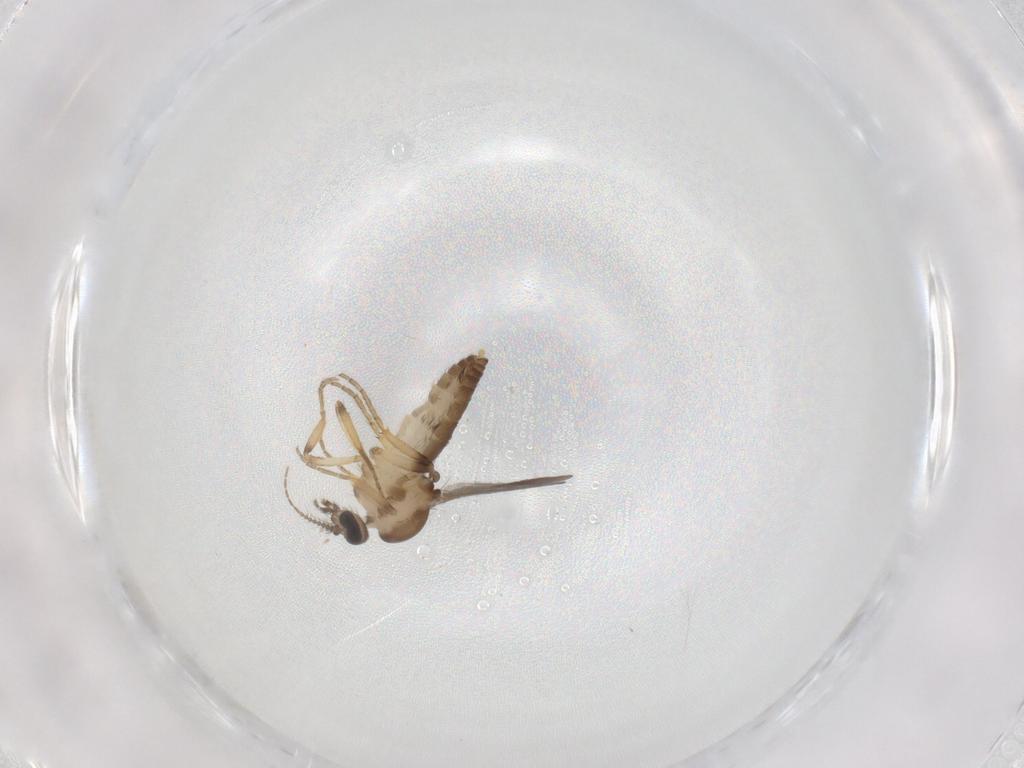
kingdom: Animalia
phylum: Arthropoda
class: Insecta
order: Diptera
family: Ceratopogonidae
